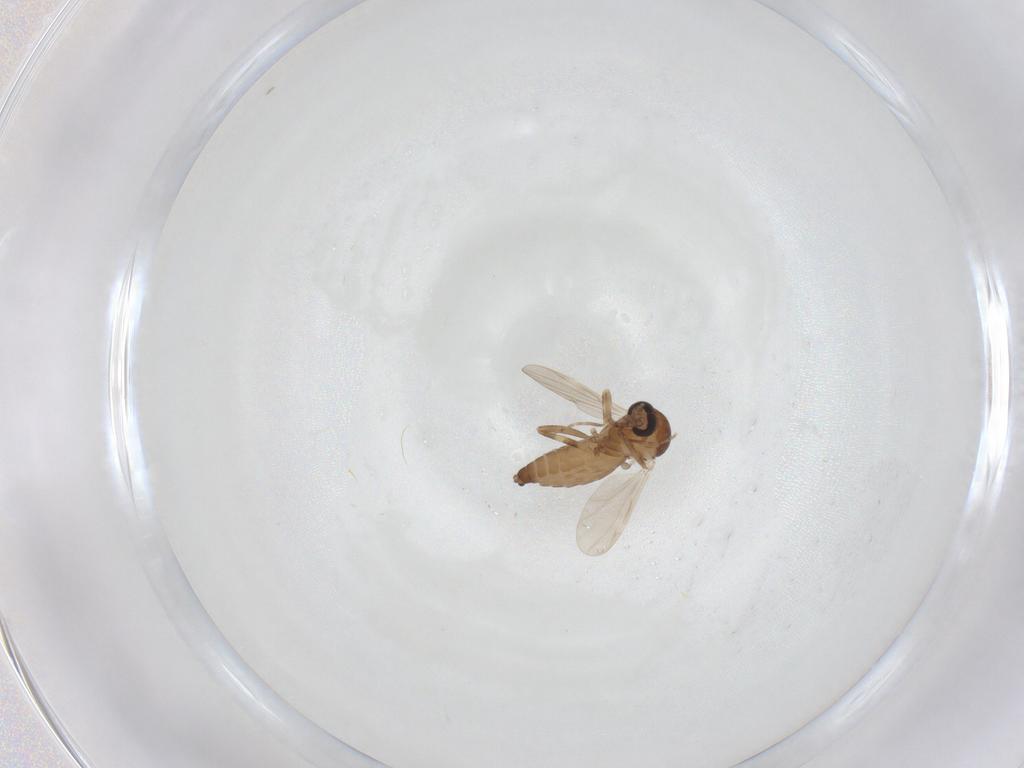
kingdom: Animalia
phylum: Arthropoda
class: Insecta
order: Diptera
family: Ceratopogonidae
